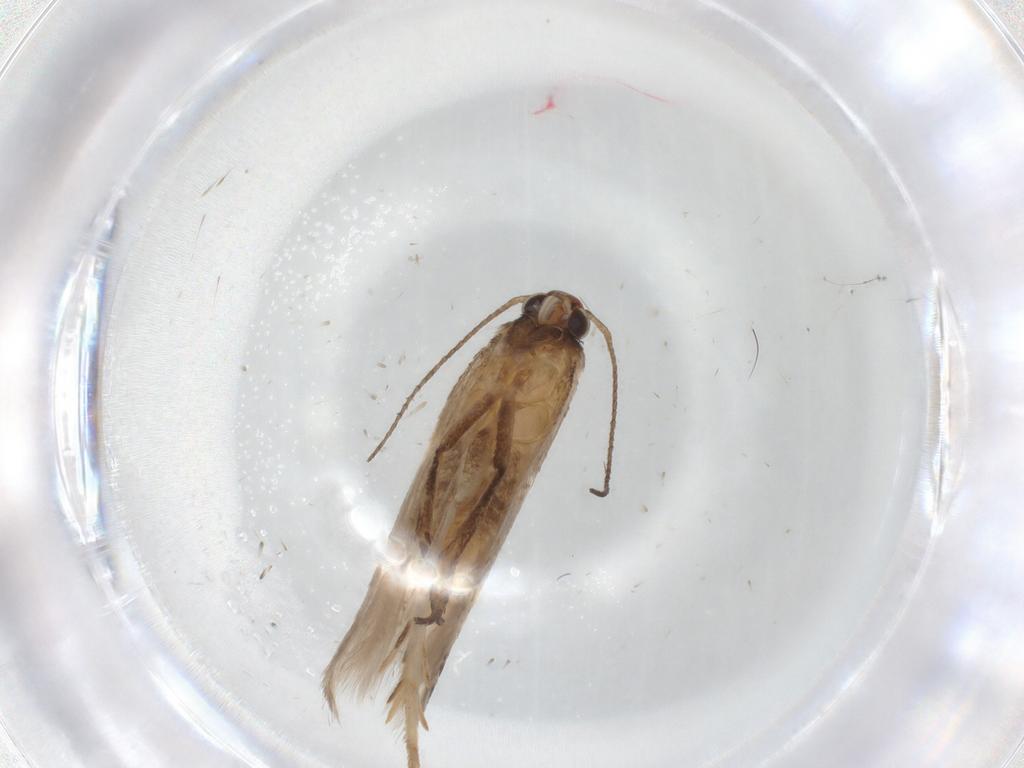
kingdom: Animalia
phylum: Arthropoda
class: Insecta
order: Lepidoptera
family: Gelechiidae
